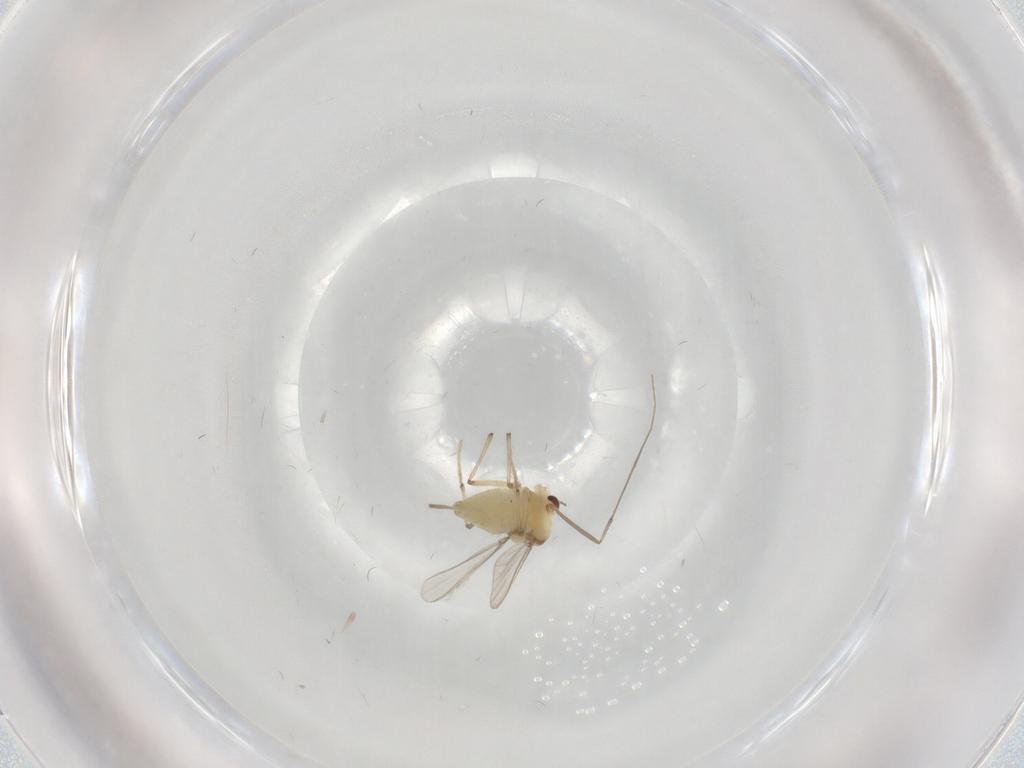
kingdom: Animalia
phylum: Arthropoda
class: Insecta
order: Diptera
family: Chironomidae
